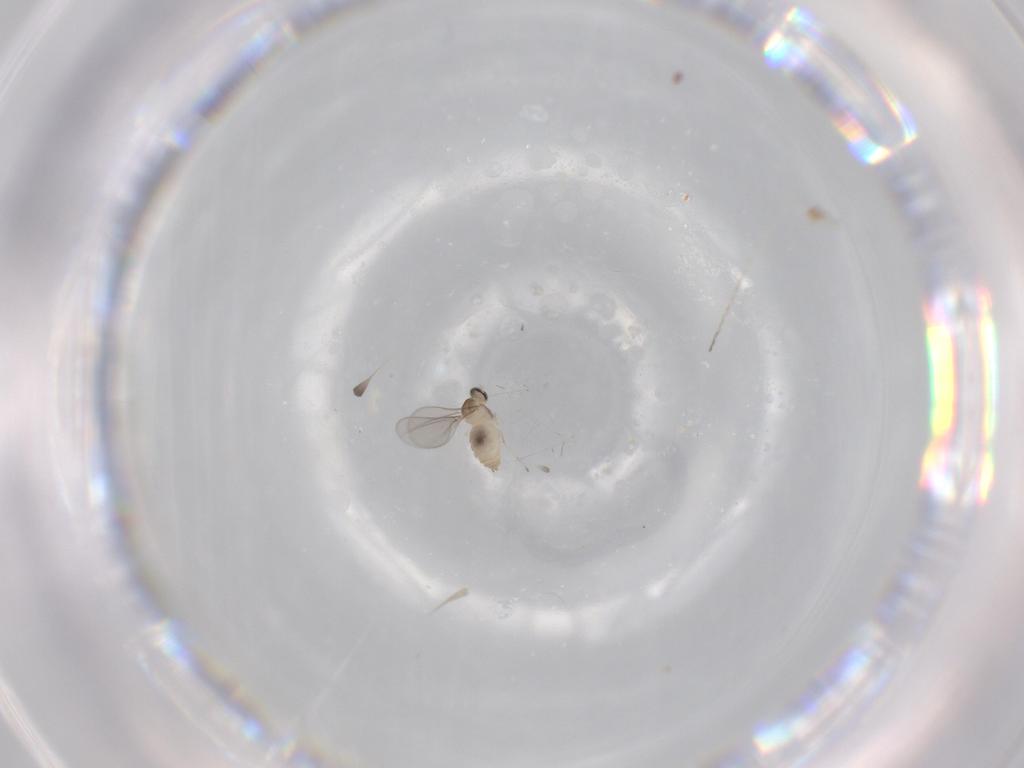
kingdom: Animalia
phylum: Arthropoda
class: Insecta
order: Diptera
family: Cecidomyiidae
